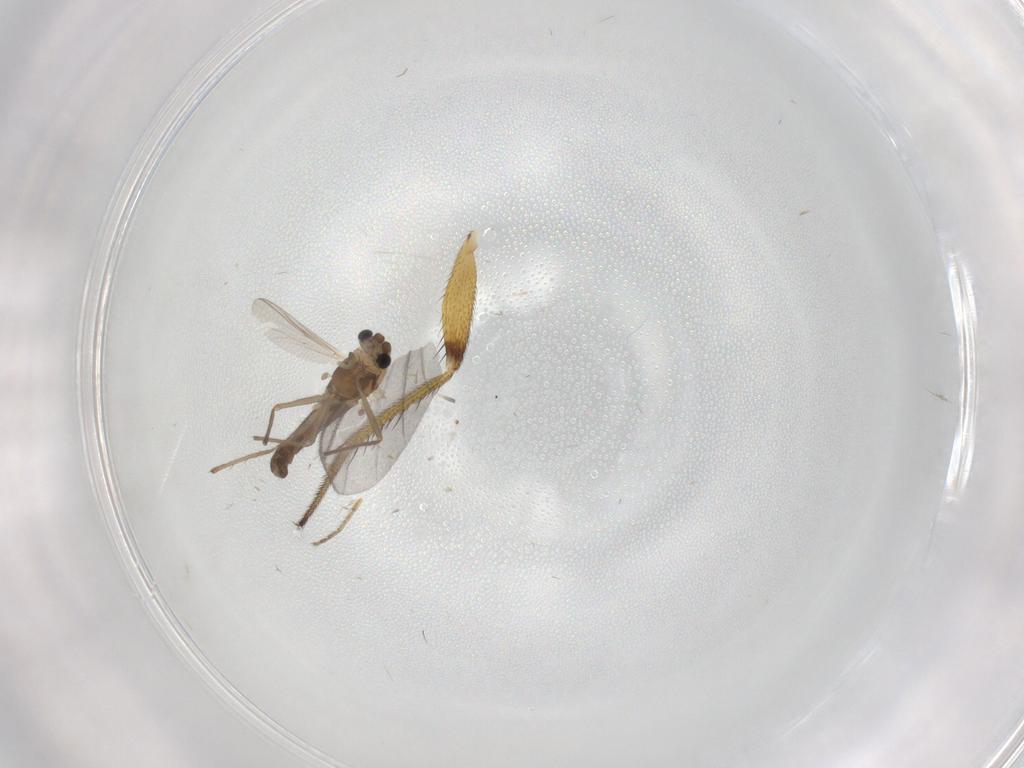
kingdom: Animalia
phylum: Arthropoda
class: Insecta
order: Diptera
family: Chironomidae
